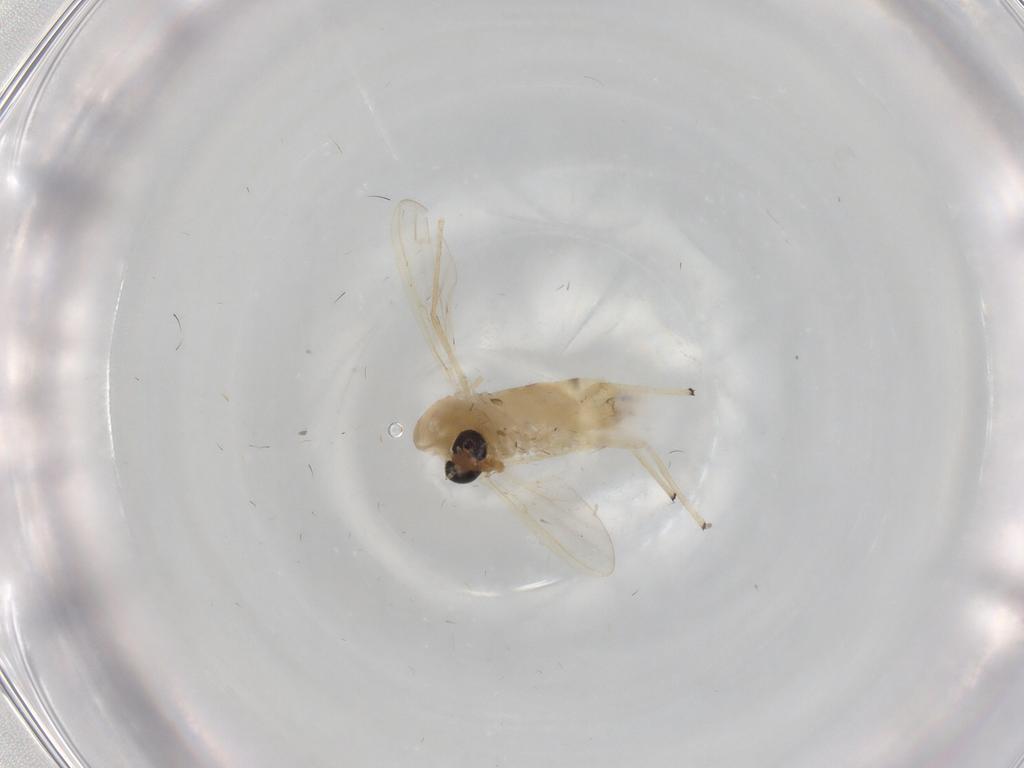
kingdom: Animalia
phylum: Arthropoda
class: Insecta
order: Diptera
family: Chironomidae
